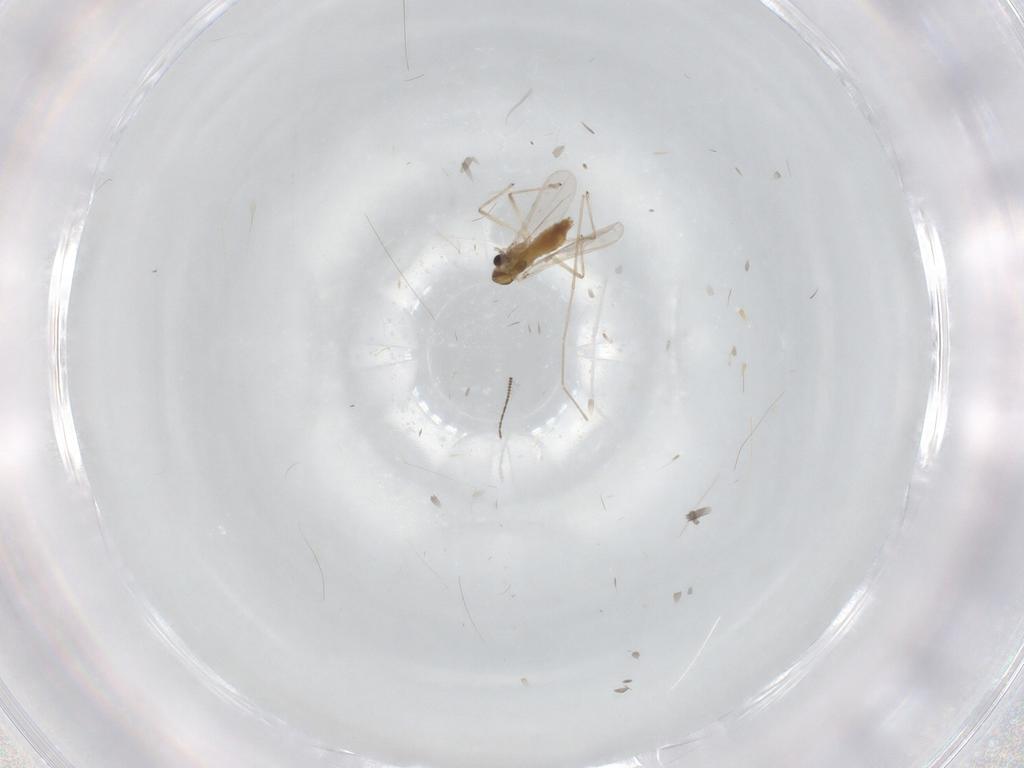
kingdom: Animalia
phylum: Arthropoda
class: Insecta
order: Diptera
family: Chironomidae
